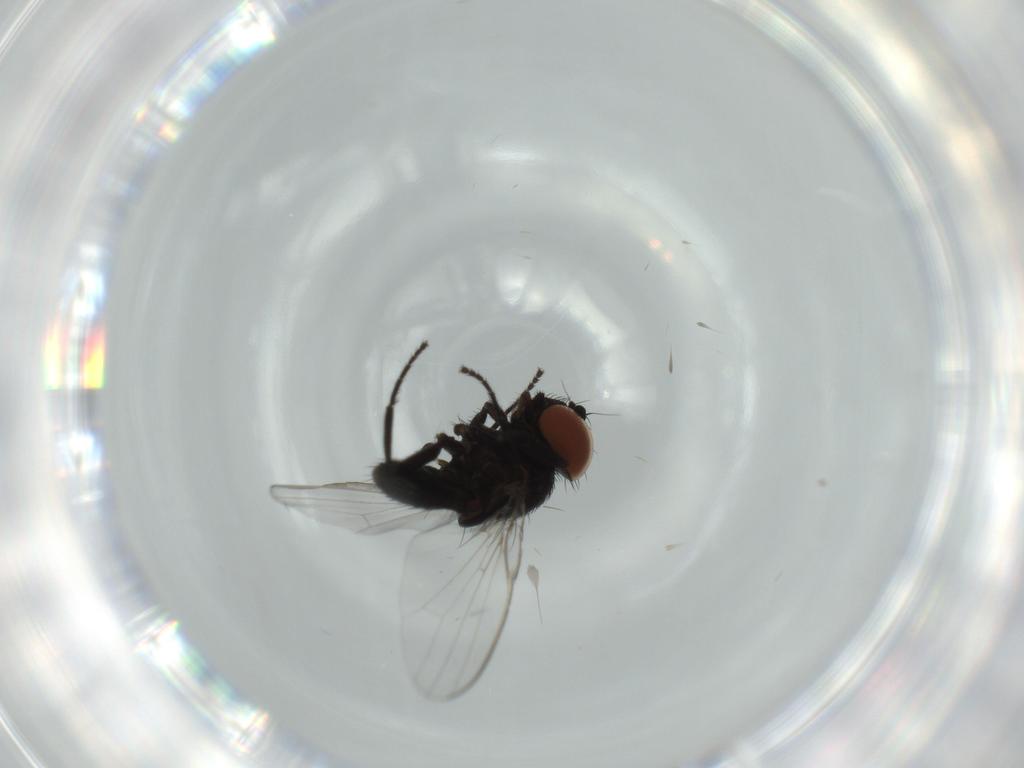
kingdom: Animalia
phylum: Arthropoda
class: Insecta
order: Diptera
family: Milichiidae
